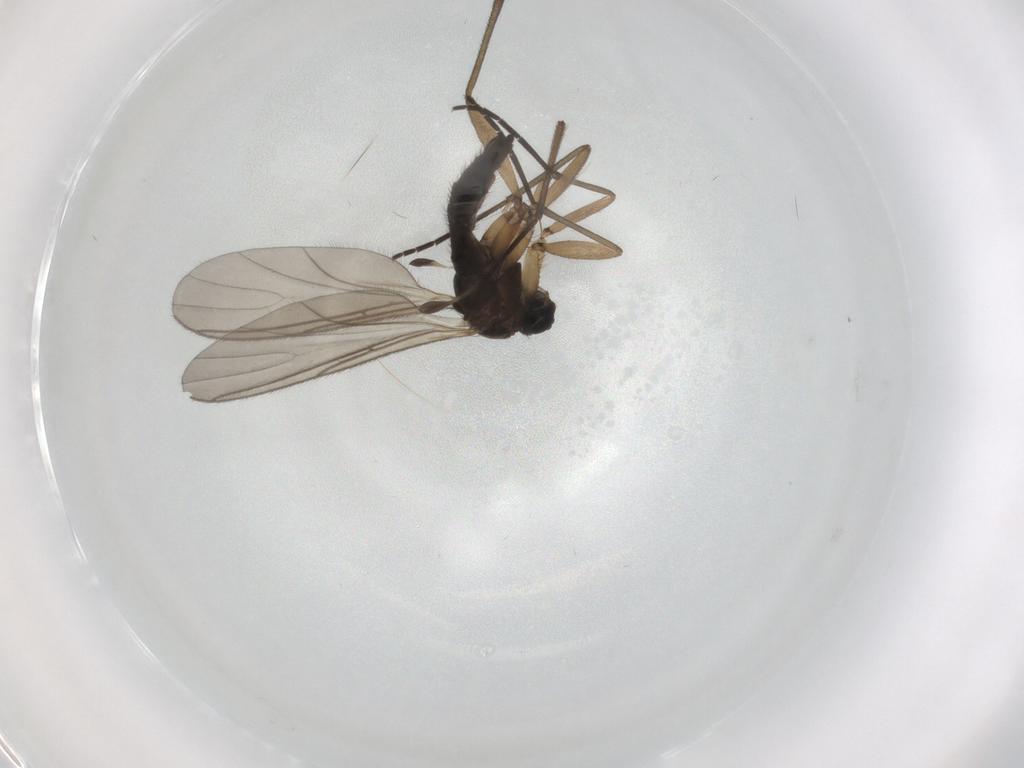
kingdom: Animalia
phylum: Arthropoda
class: Insecta
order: Diptera
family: Sciaridae
